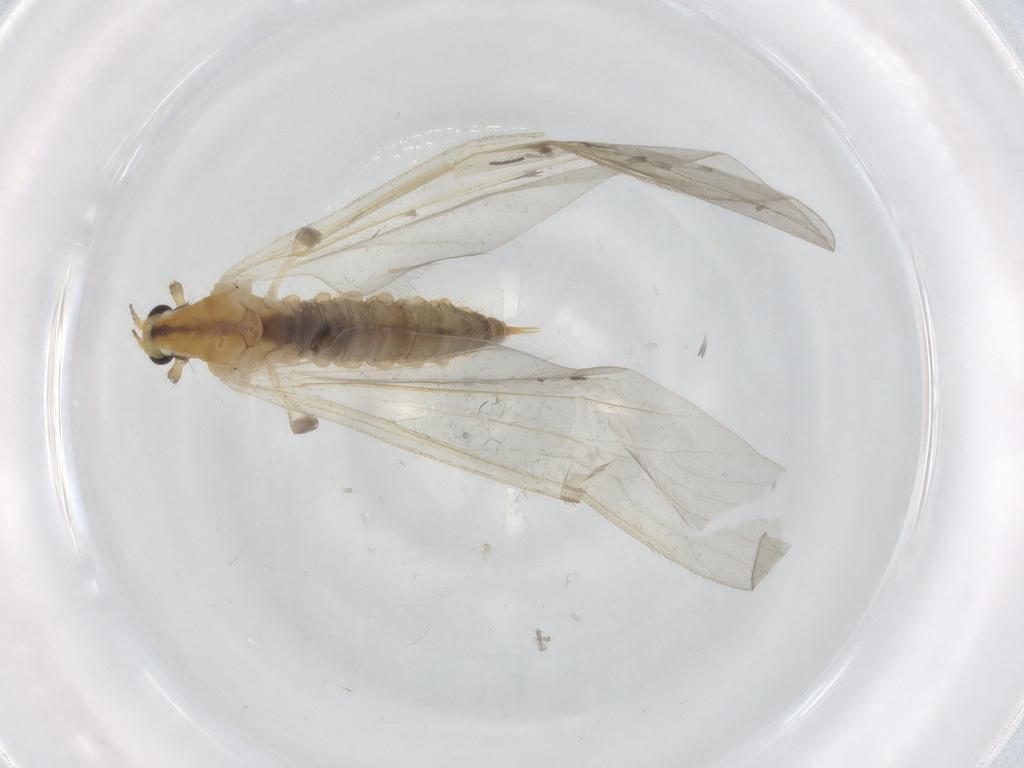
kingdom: Animalia
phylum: Arthropoda
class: Insecta
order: Diptera
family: Limoniidae
